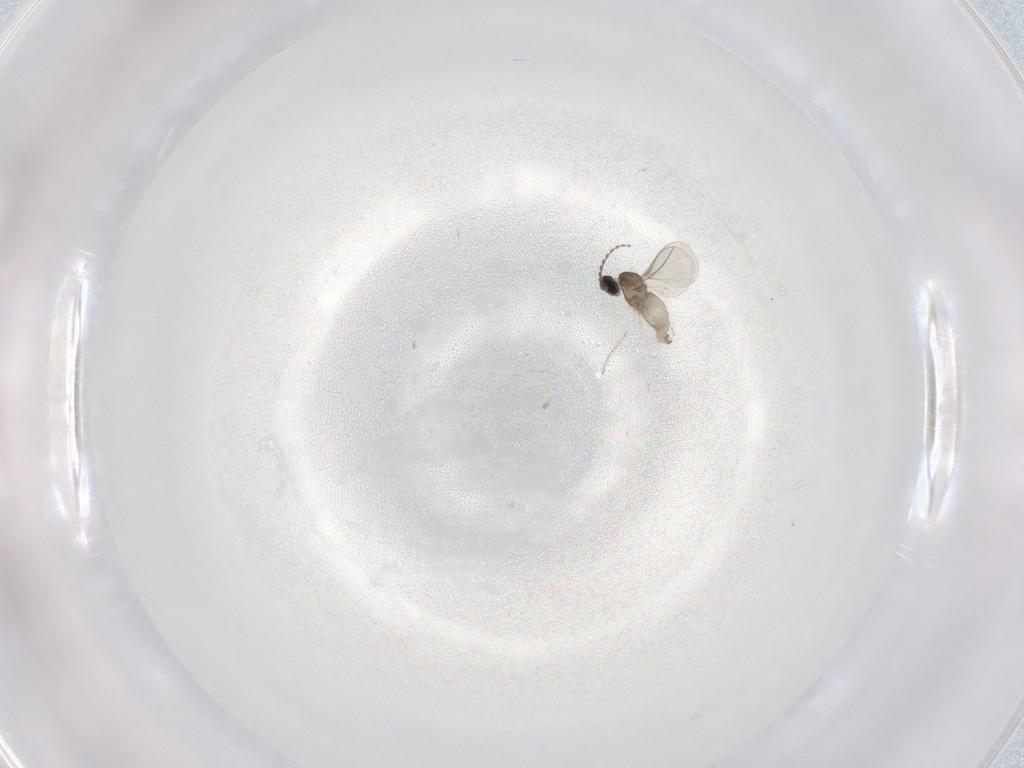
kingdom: Animalia
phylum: Arthropoda
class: Insecta
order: Diptera
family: Cecidomyiidae
